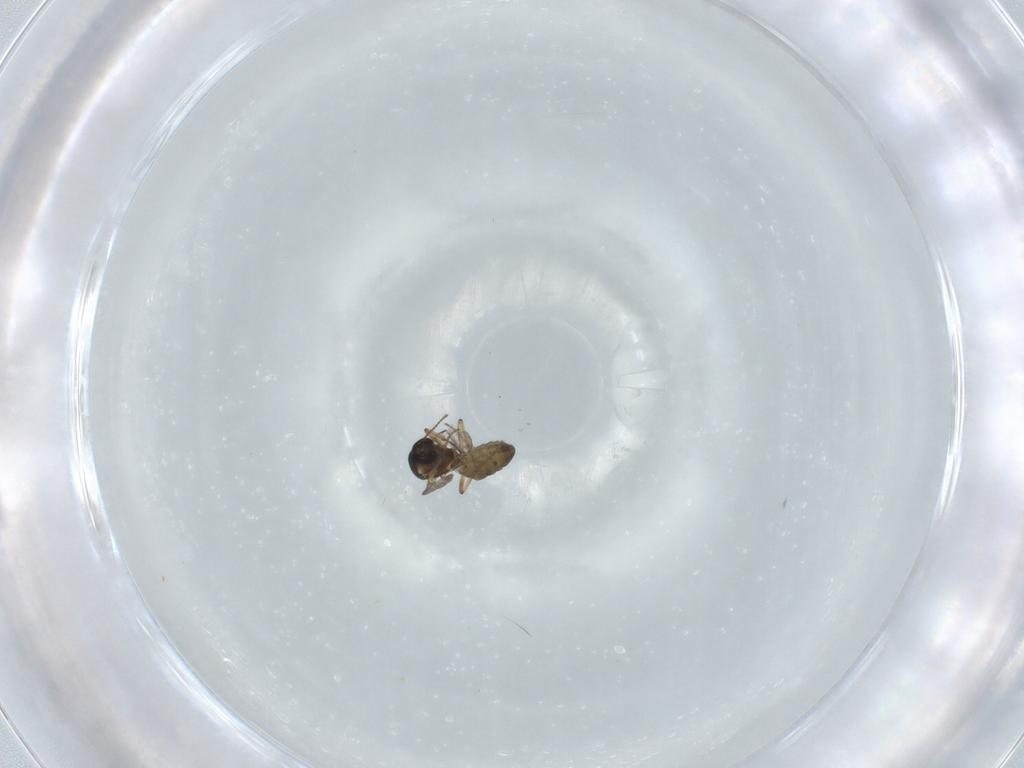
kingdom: Animalia
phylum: Arthropoda
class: Insecta
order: Diptera
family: Ceratopogonidae
